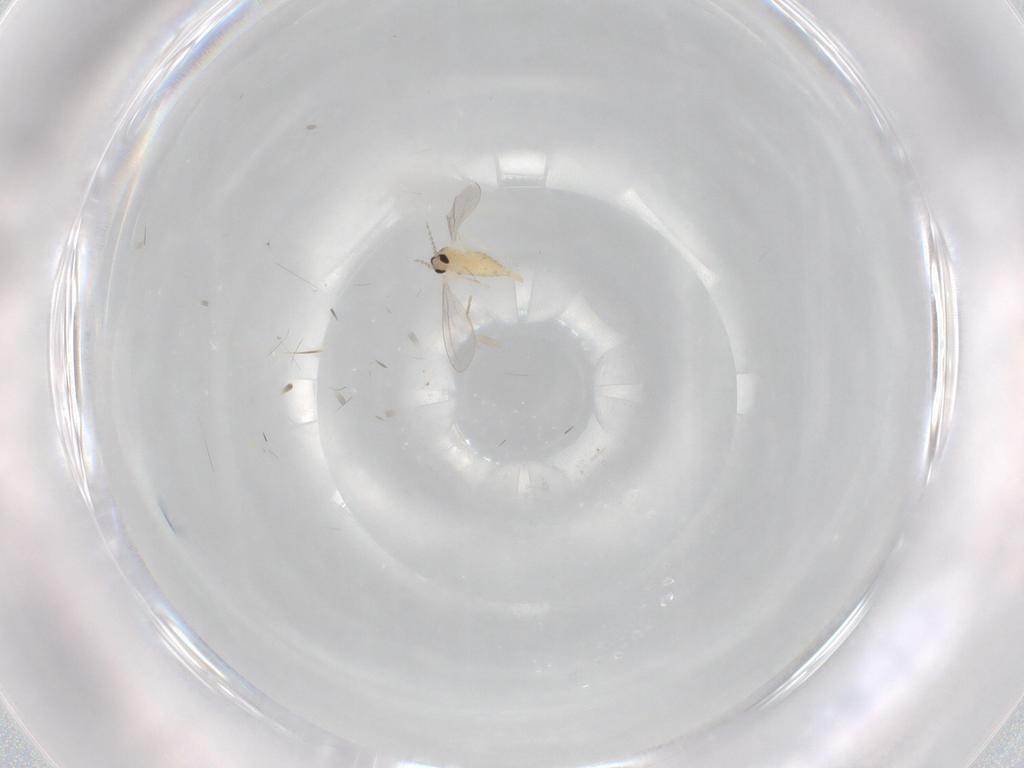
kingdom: Animalia
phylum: Arthropoda
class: Insecta
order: Diptera
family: Cecidomyiidae
